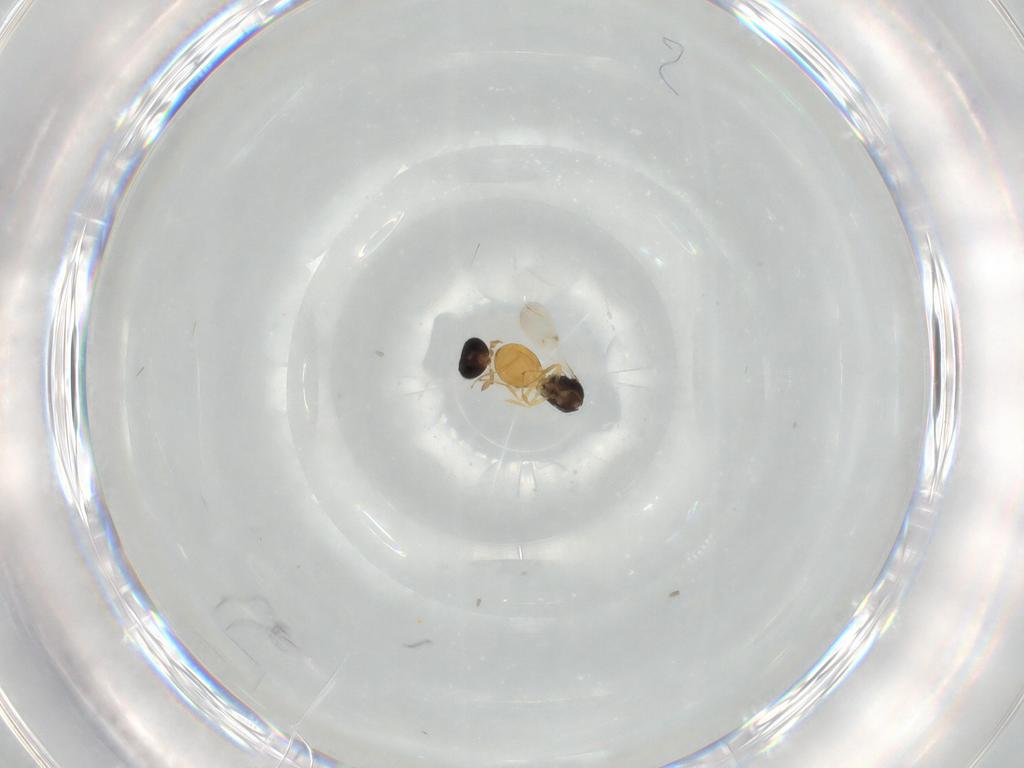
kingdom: Animalia
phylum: Arthropoda
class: Insecta
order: Hymenoptera
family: Scelionidae
